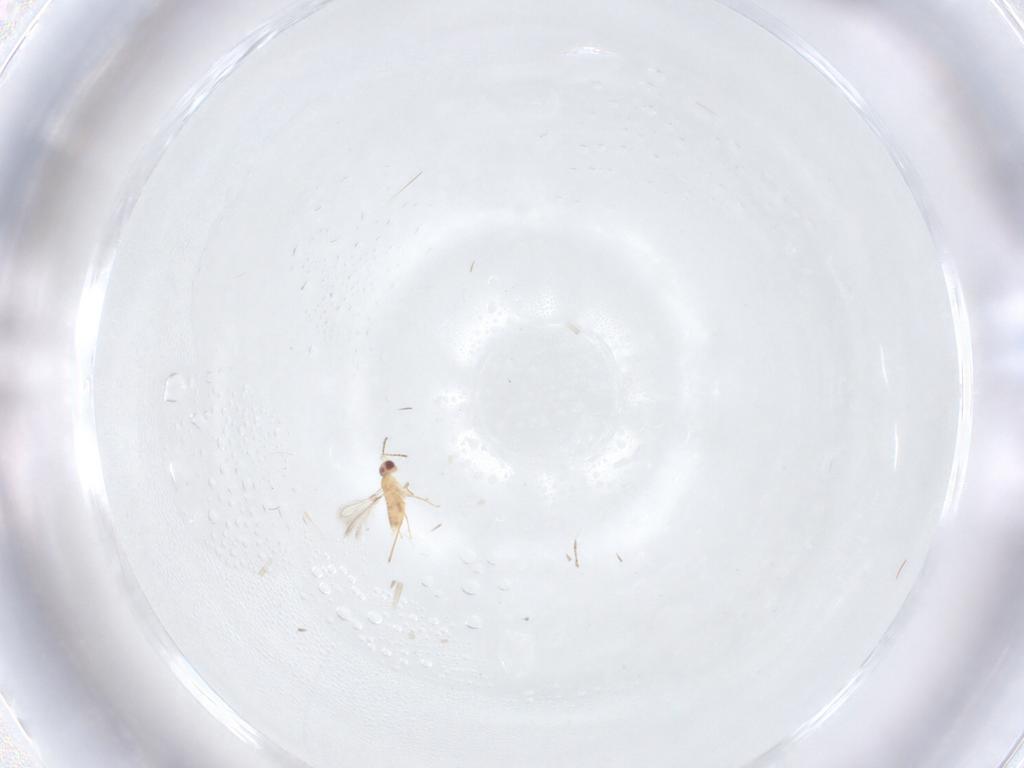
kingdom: Animalia
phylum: Arthropoda
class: Insecta
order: Hymenoptera
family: Mymaridae
